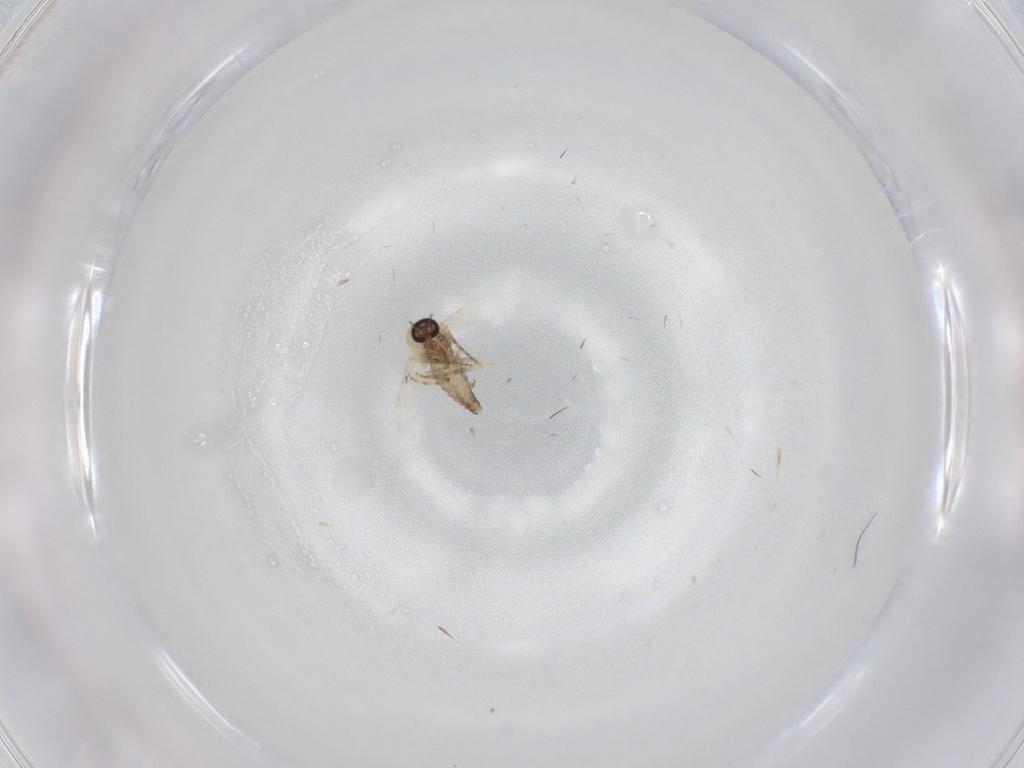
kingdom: Animalia
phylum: Arthropoda
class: Insecta
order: Diptera
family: Ceratopogonidae
